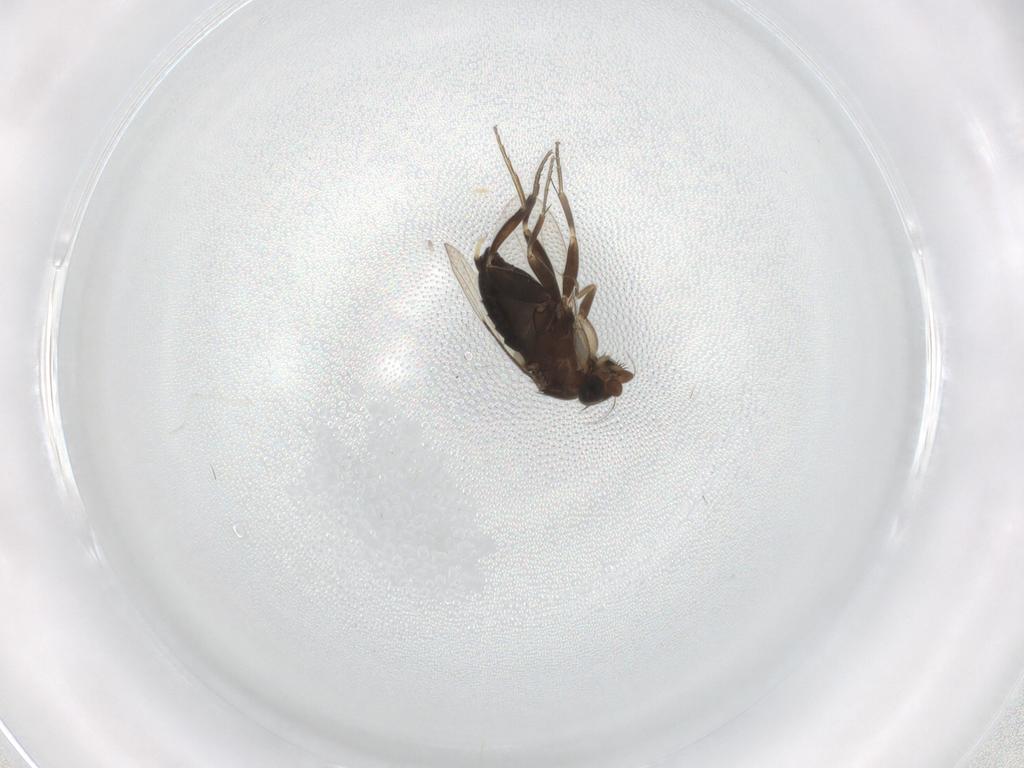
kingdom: Animalia
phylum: Arthropoda
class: Insecta
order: Diptera
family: Phoridae
